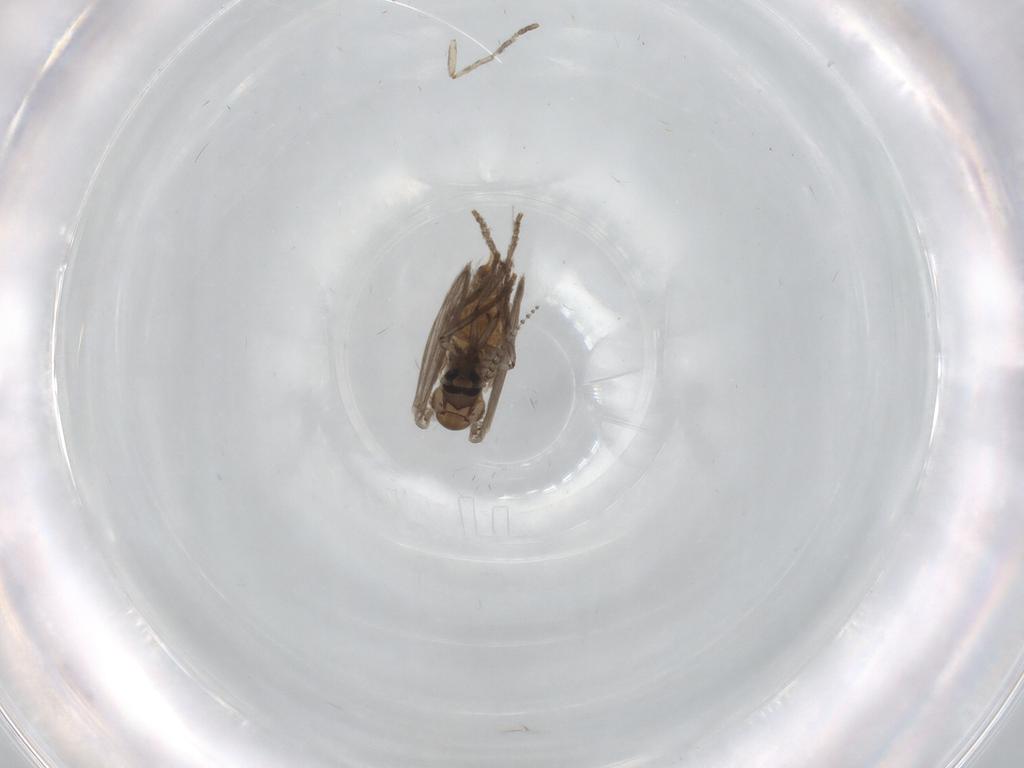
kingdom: Animalia
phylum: Arthropoda
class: Insecta
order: Diptera
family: Psychodidae
